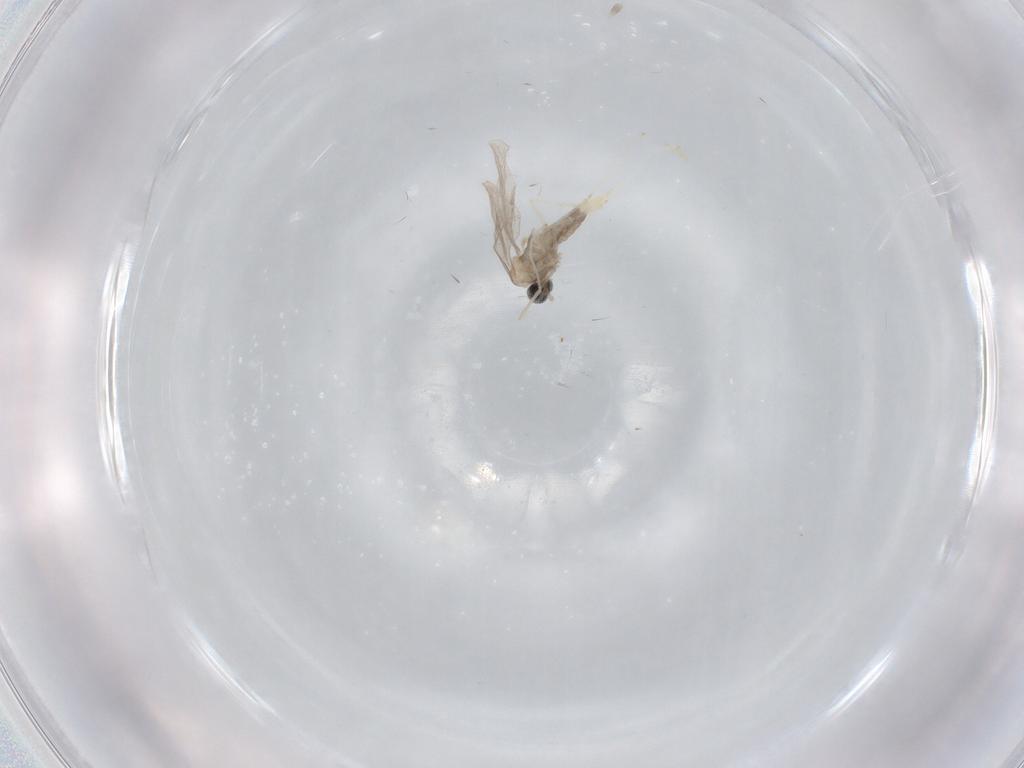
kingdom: Animalia
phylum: Arthropoda
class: Insecta
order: Diptera
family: Cecidomyiidae
